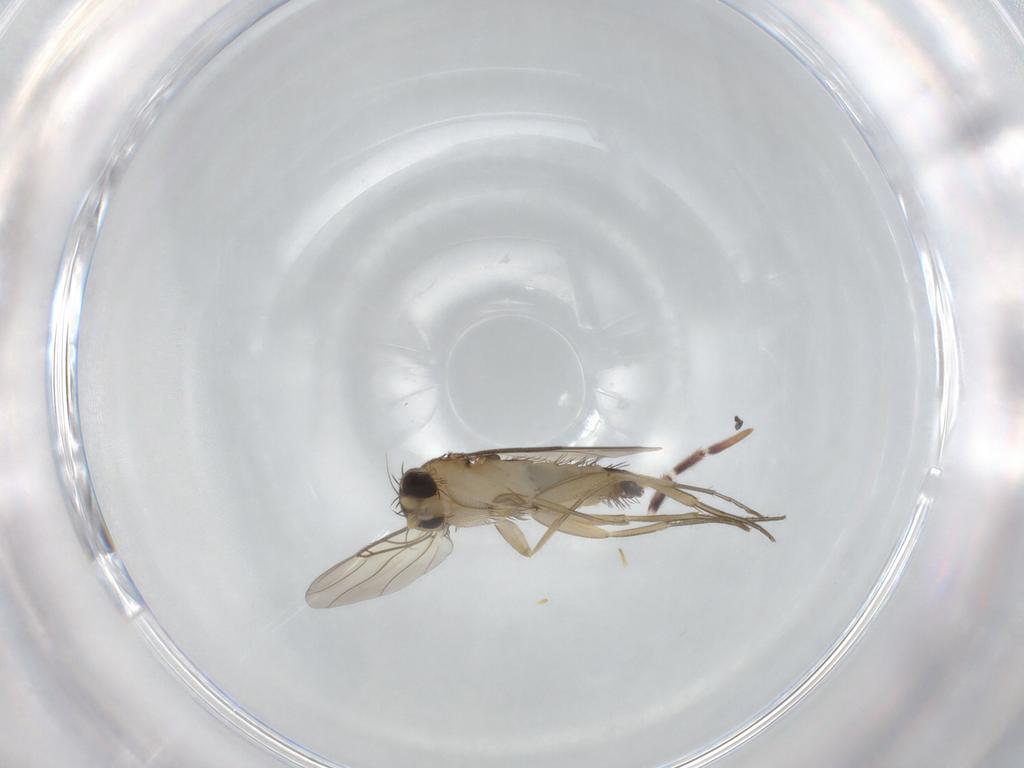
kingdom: Animalia
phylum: Arthropoda
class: Insecta
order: Diptera
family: Phoridae
